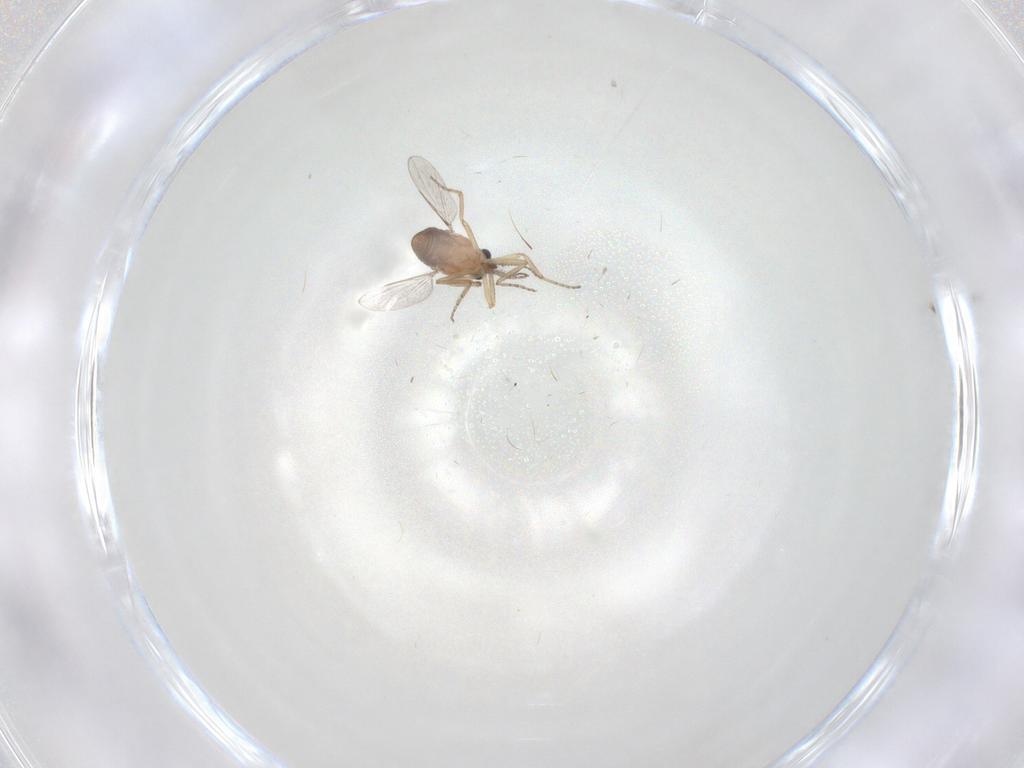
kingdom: Animalia
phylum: Arthropoda
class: Insecta
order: Diptera
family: Ceratopogonidae
